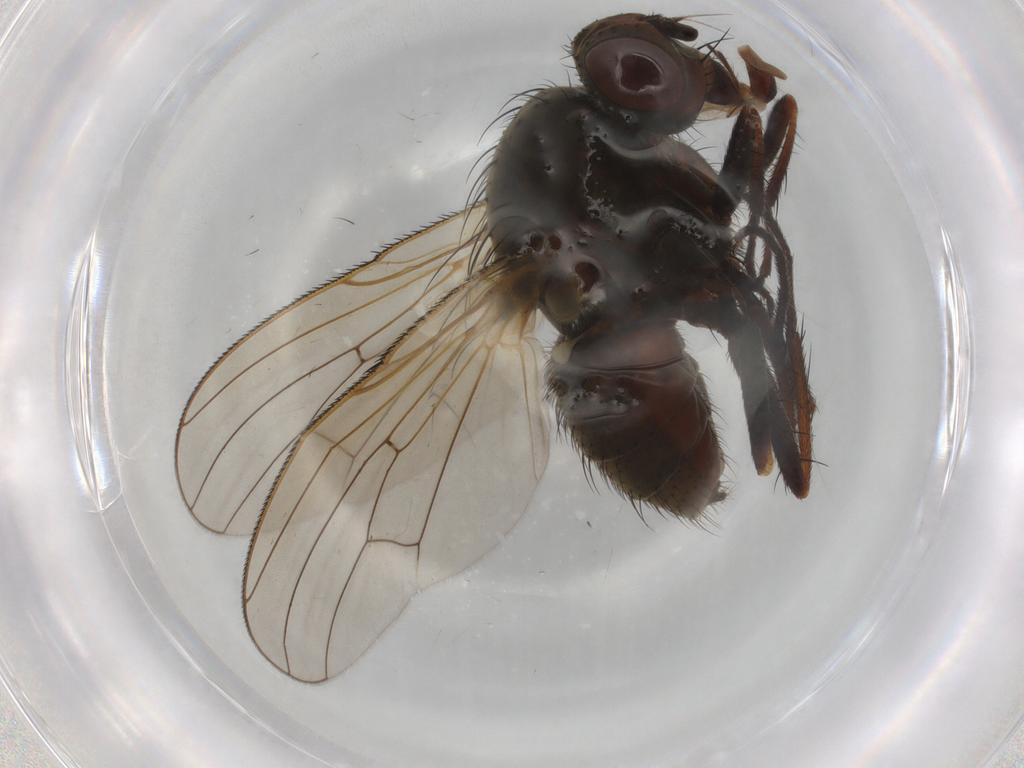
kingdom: Animalia
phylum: Arthropoda
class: Insecta
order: Diptera
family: Anthomyiidae
